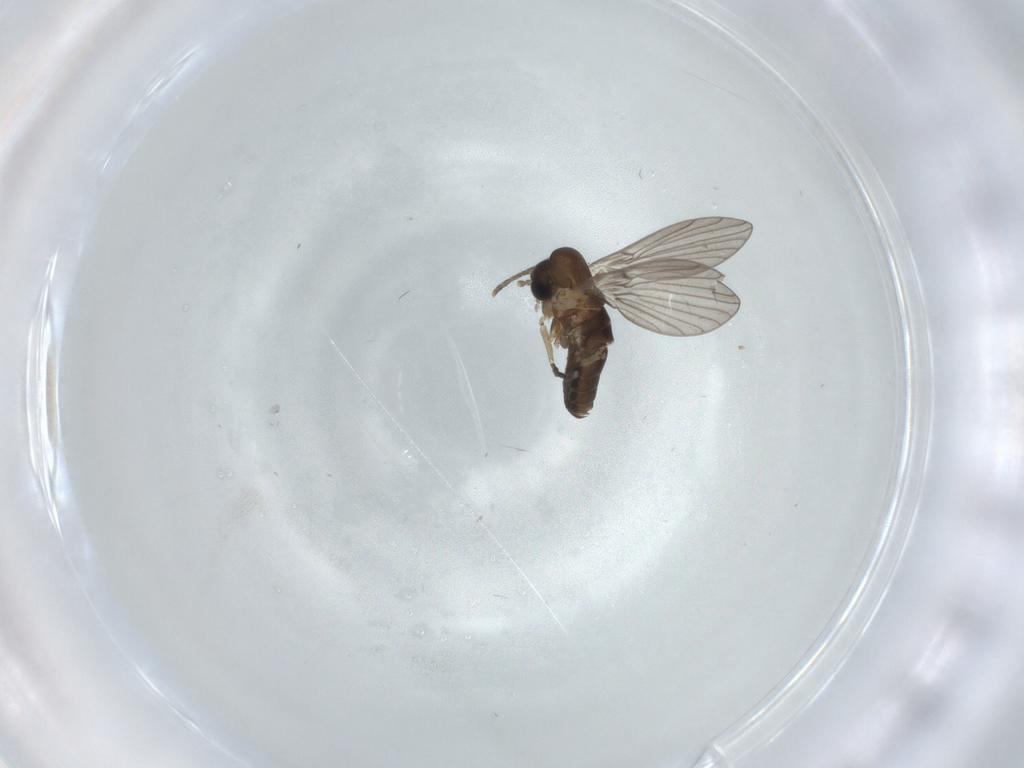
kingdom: Animalia
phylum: Arthropoda
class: Insecta
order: Diptera
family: Psychodidae
